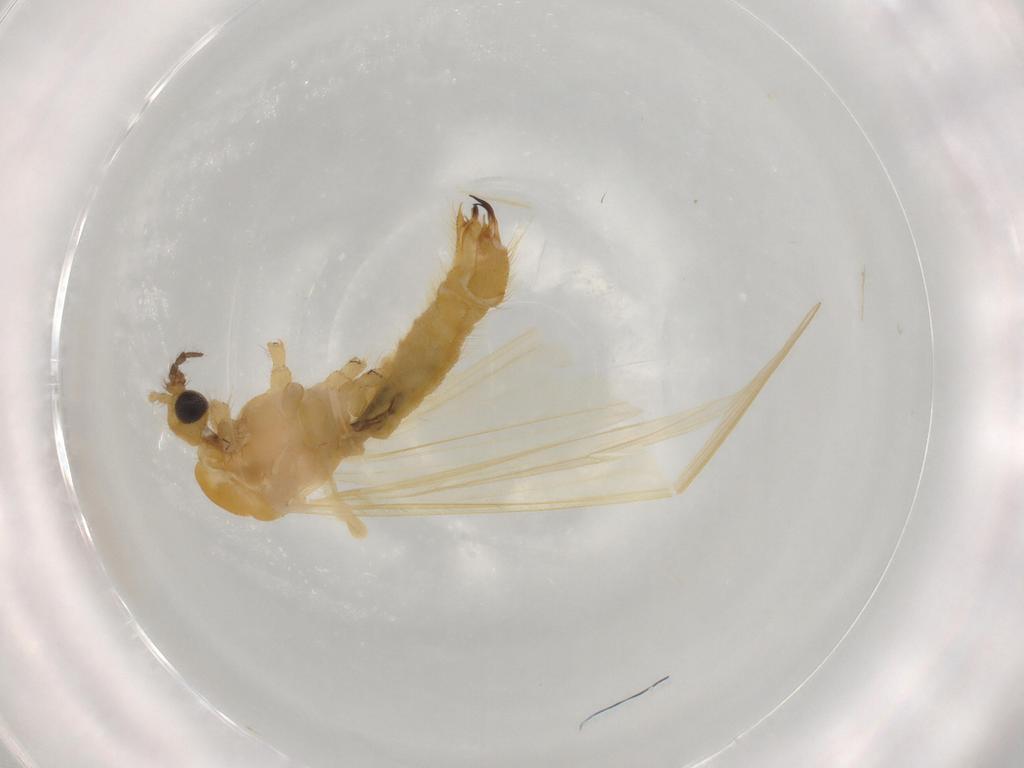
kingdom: Animalia
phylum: Arthropoda
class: Insecta
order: Diptera
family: Limoniidae
